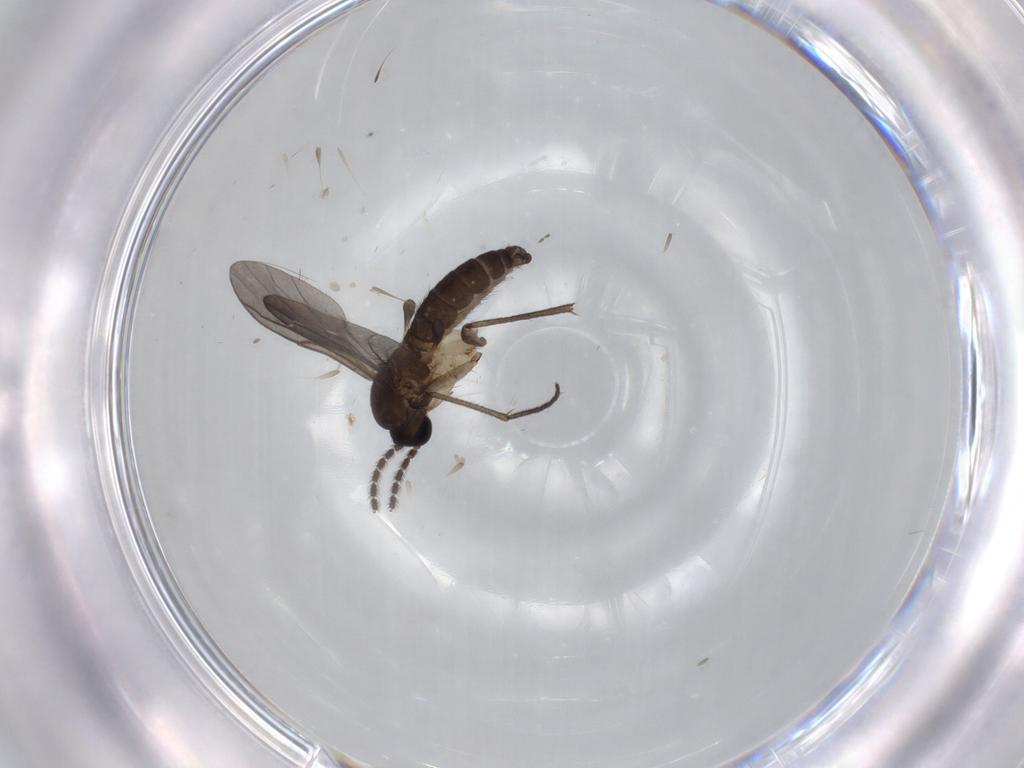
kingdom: Animalia
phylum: Arthropoda
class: Insecta
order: Diptera
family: Sciaridae
